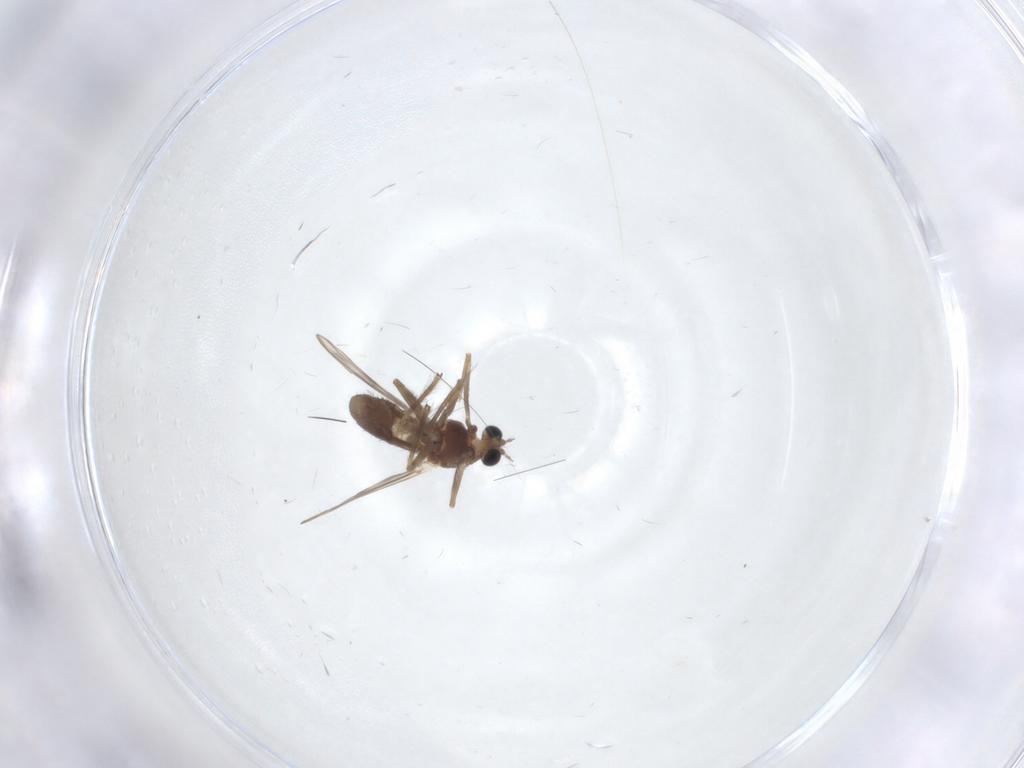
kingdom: Animalia
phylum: Arthropoda
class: Insecta
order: Diptera
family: Chironomidae
